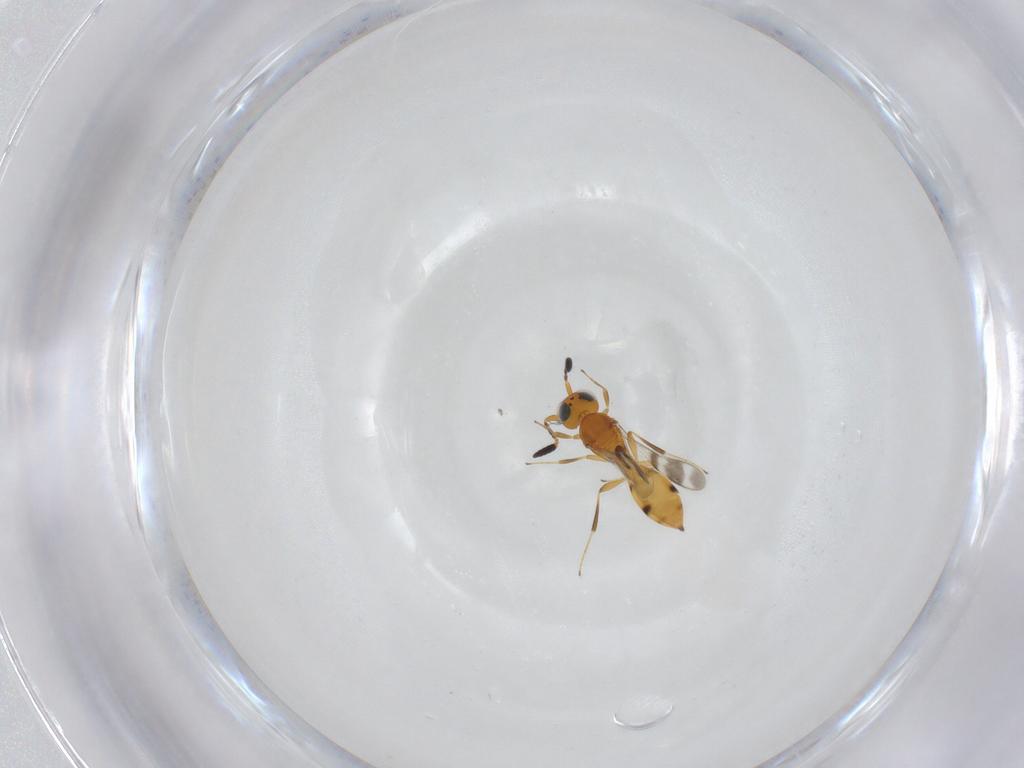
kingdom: Animalia
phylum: Arthropoda
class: Insecta
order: Hymenoptera
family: Scelionidae
